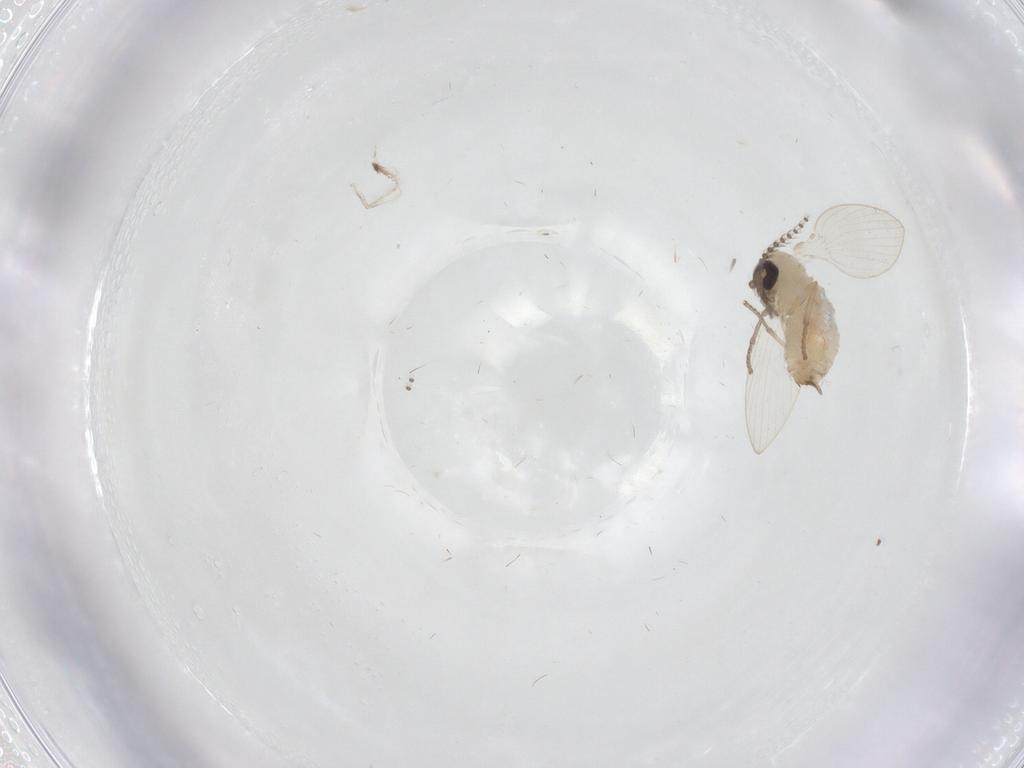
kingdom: Animalia
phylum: Arthropoda
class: Insecta
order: Diptera
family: Psychodidae
